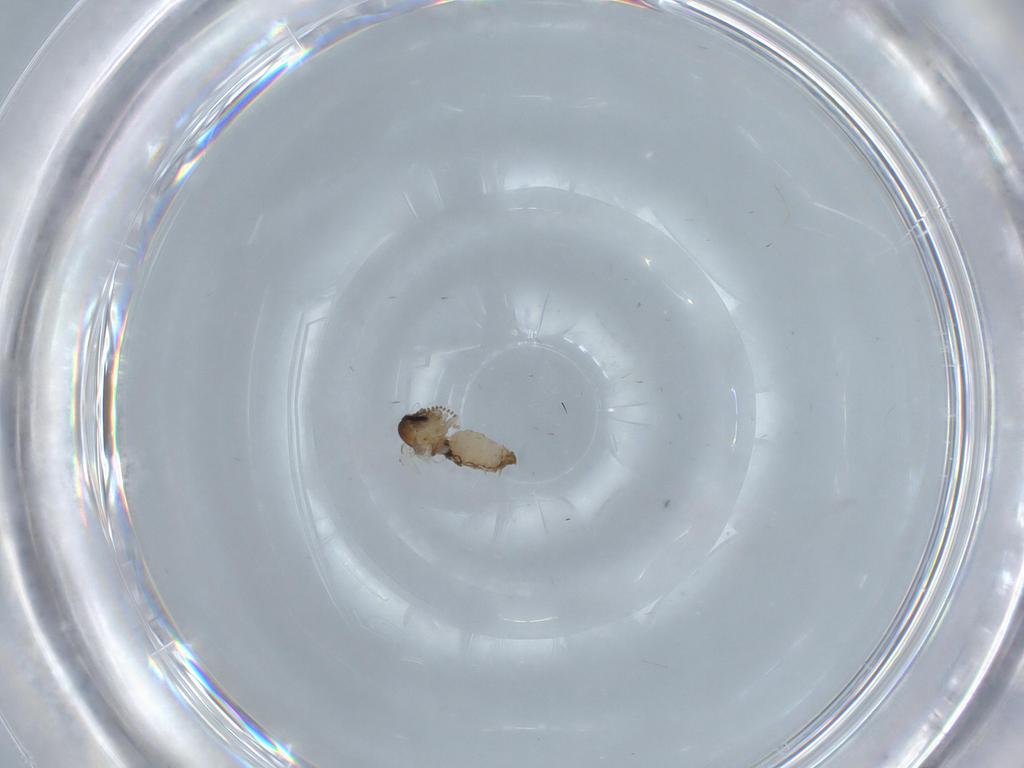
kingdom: Animalia
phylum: Arthropoda
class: Insecta
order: Diptera
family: Psychodidae
